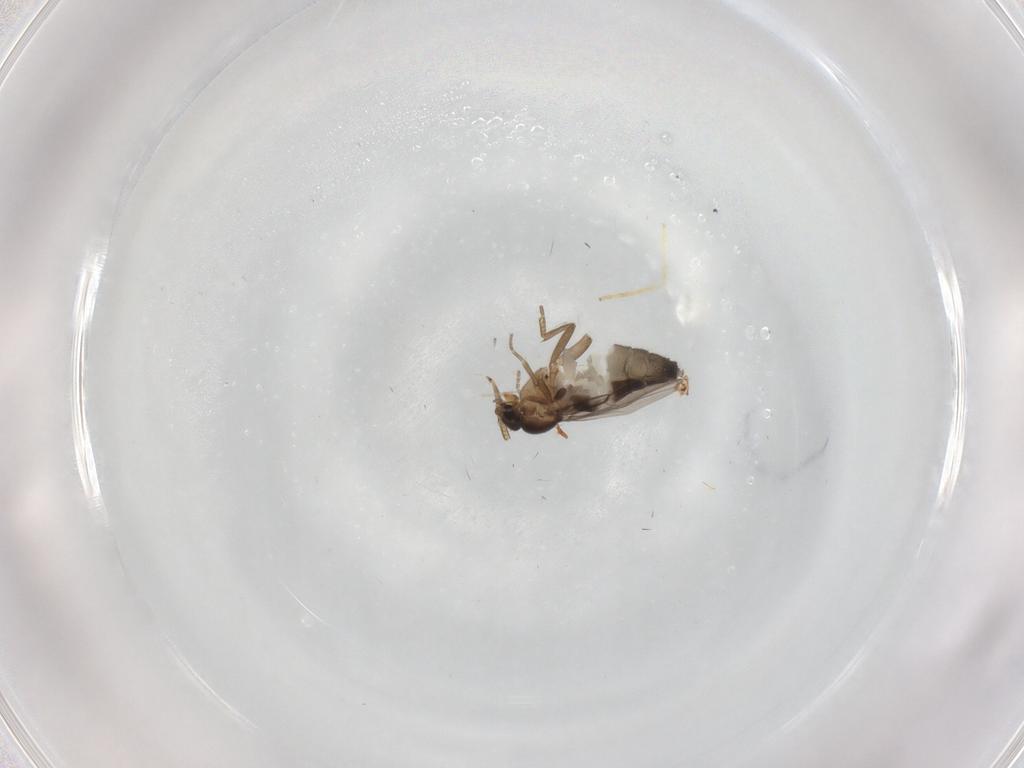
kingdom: Animalia
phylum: Arthropoda
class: Insecta
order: Diptera
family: Phoridae
